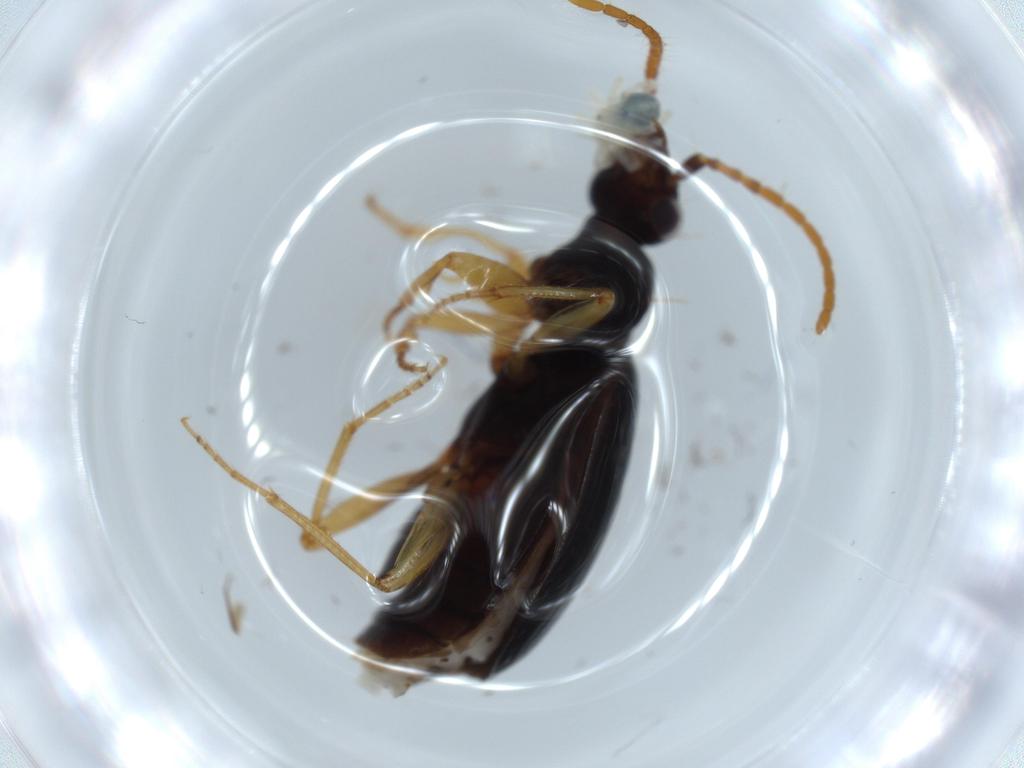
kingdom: Animalia
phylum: Arthropoda
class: Insecta
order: Coleoptera
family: Carabidae
